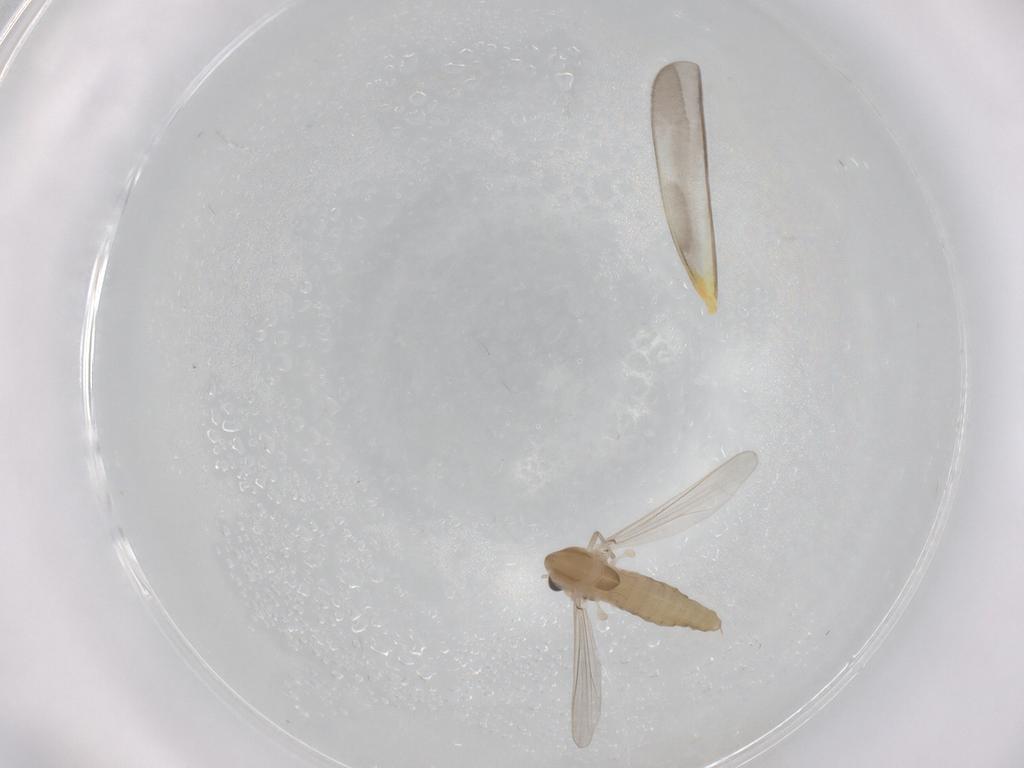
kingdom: Animalia
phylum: Arthropoda
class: Insecta
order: Diptera
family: Chironomidae
